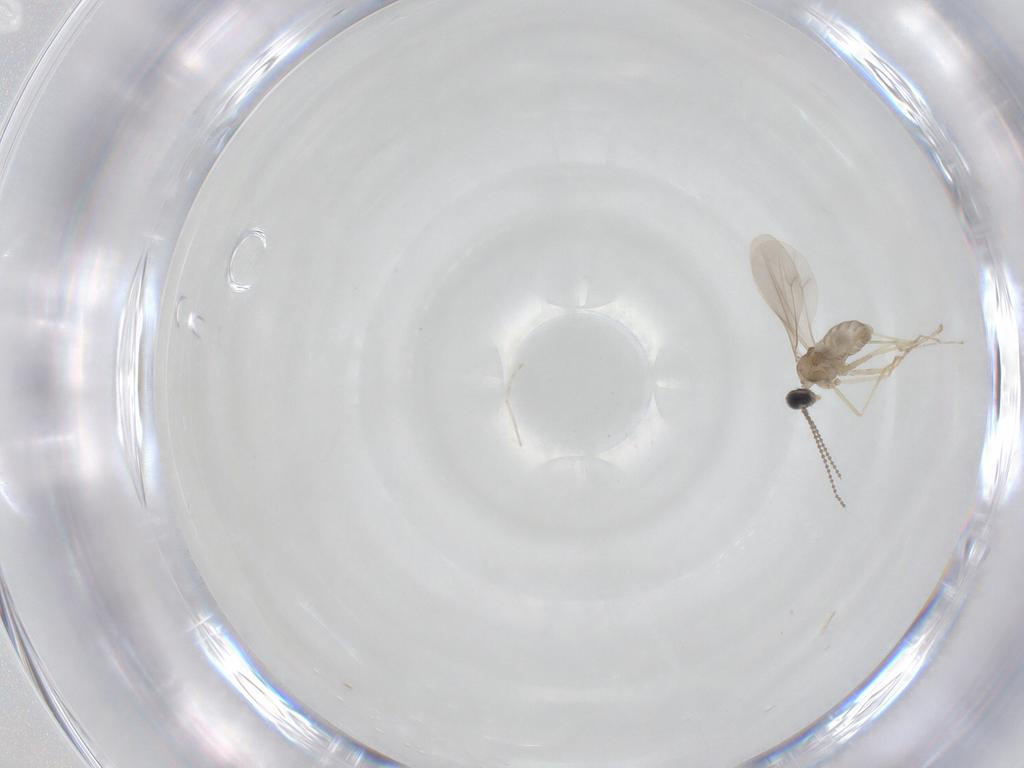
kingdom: Animalia
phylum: Arthropoda
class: Insecta
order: Diptera
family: Cecidomyiidae
